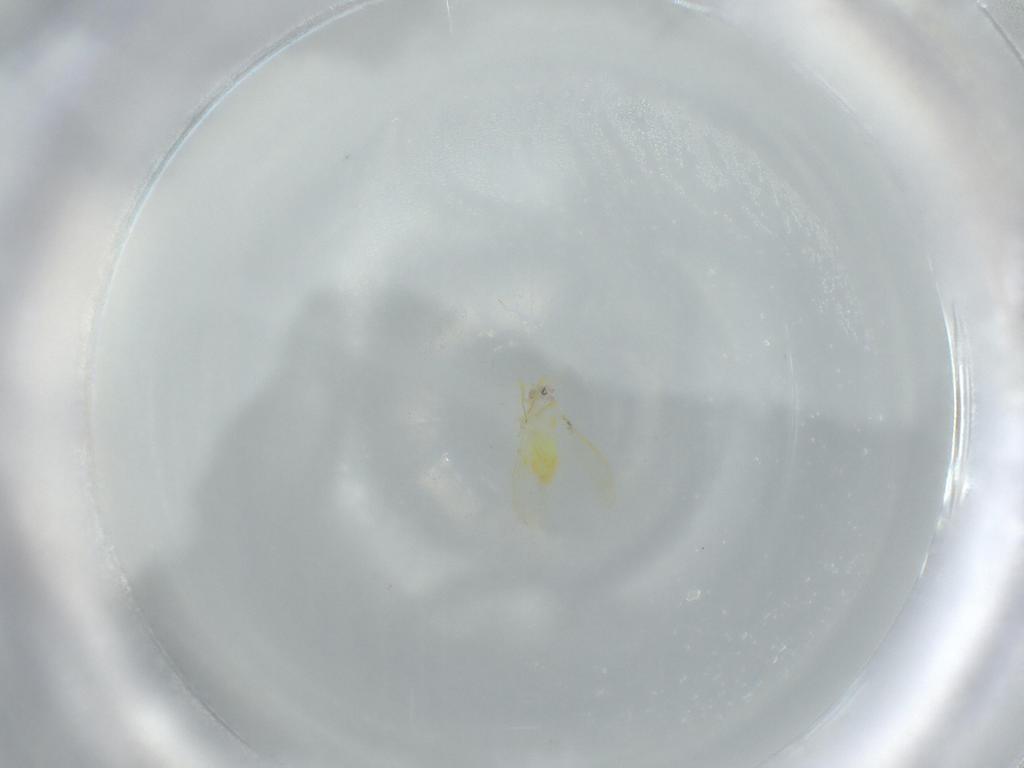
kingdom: Animalia
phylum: Arthropoda
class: Insecta
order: Hemiptera
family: Aleyrodidae
